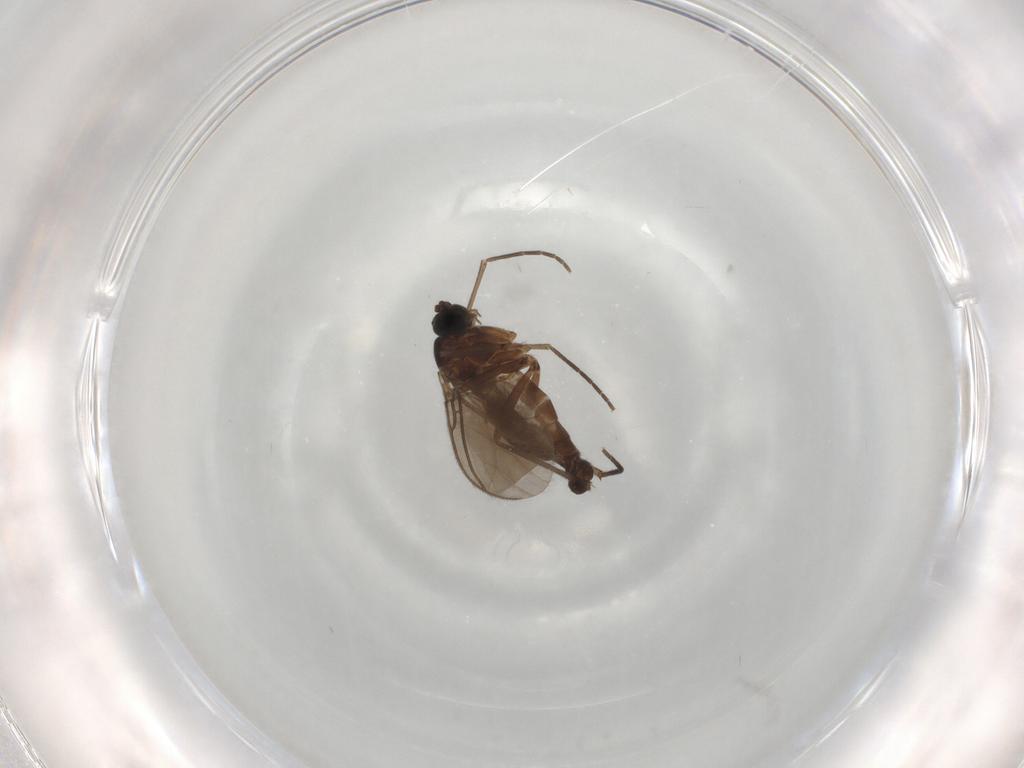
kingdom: Animalia
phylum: Arthropoda
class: Insecta
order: Diptera
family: Sciaridae
